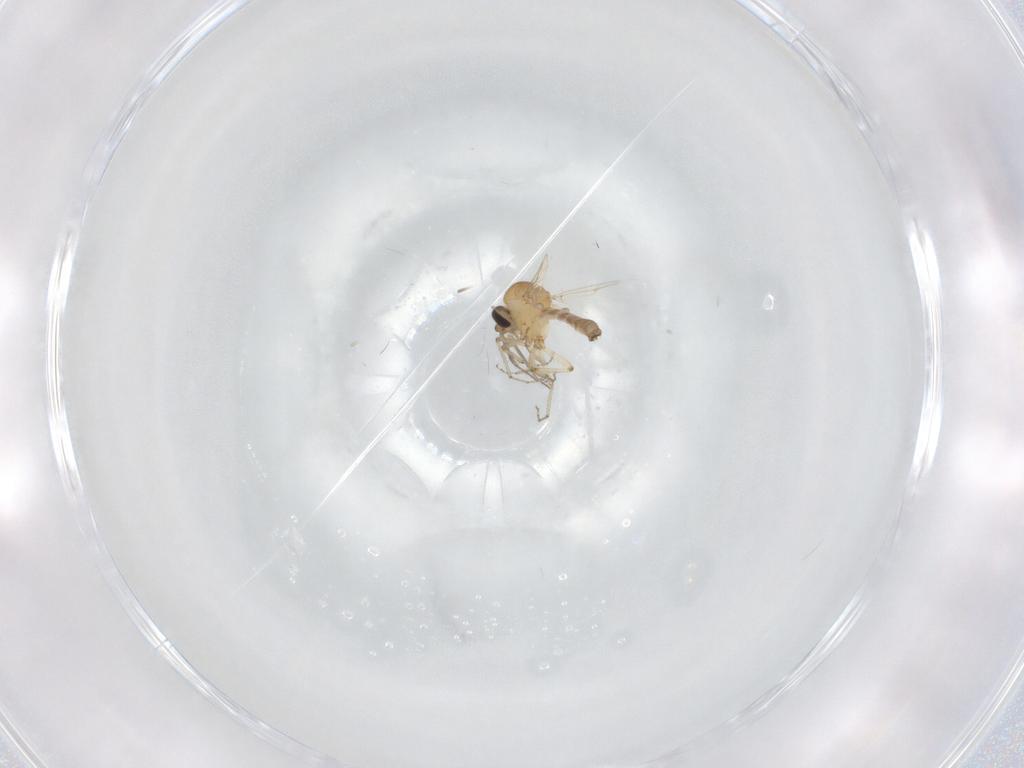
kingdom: Animalia
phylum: Arthropoda
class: Insecta
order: Diptera
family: Ceratopogonidae
